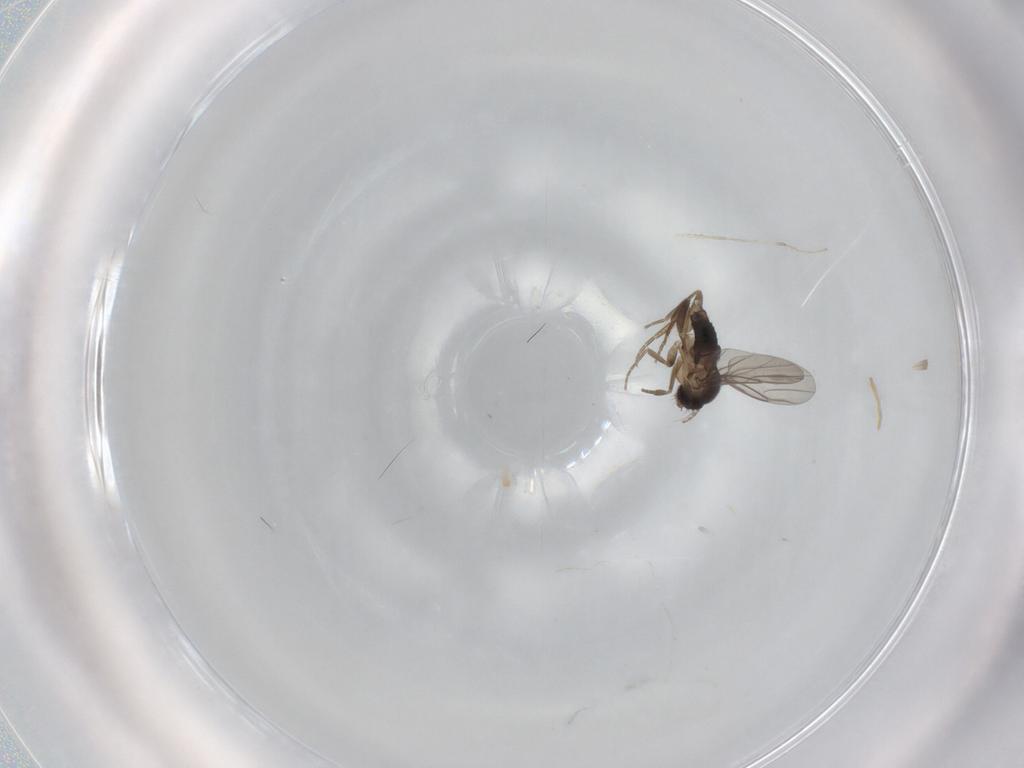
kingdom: Animalia
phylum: Arthropoda
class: Insecta
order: Diptera
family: Phoridae
